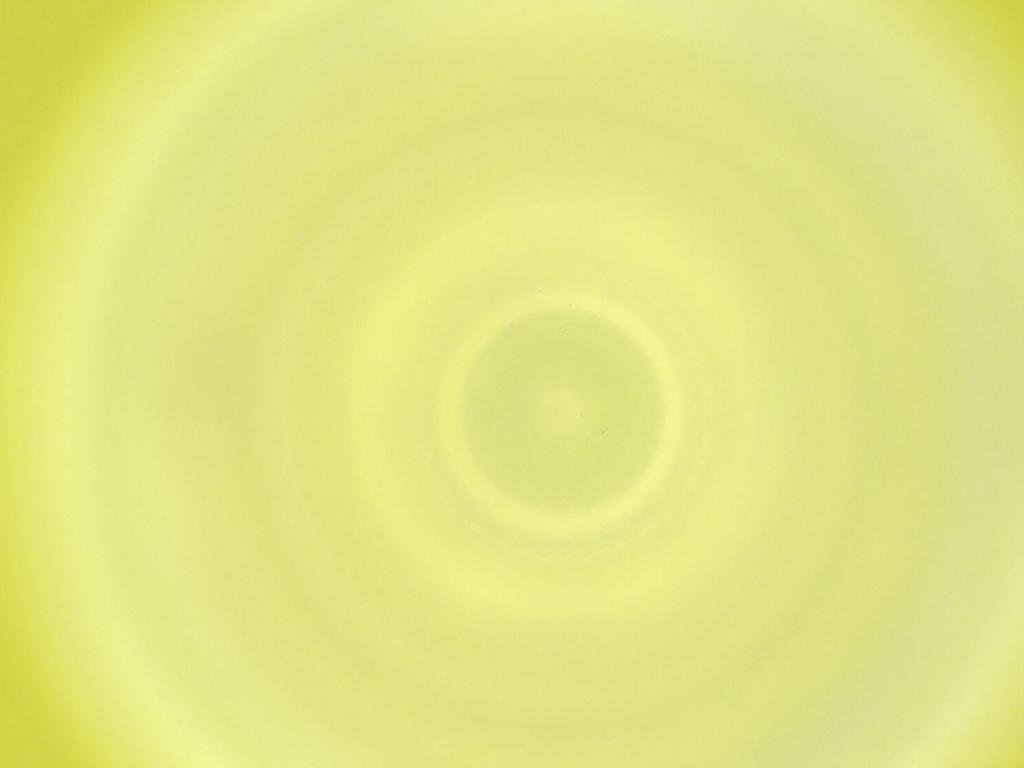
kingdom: Animalia
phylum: Arthropoda
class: Insecta
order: Diptera
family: Cecidomyiidae
